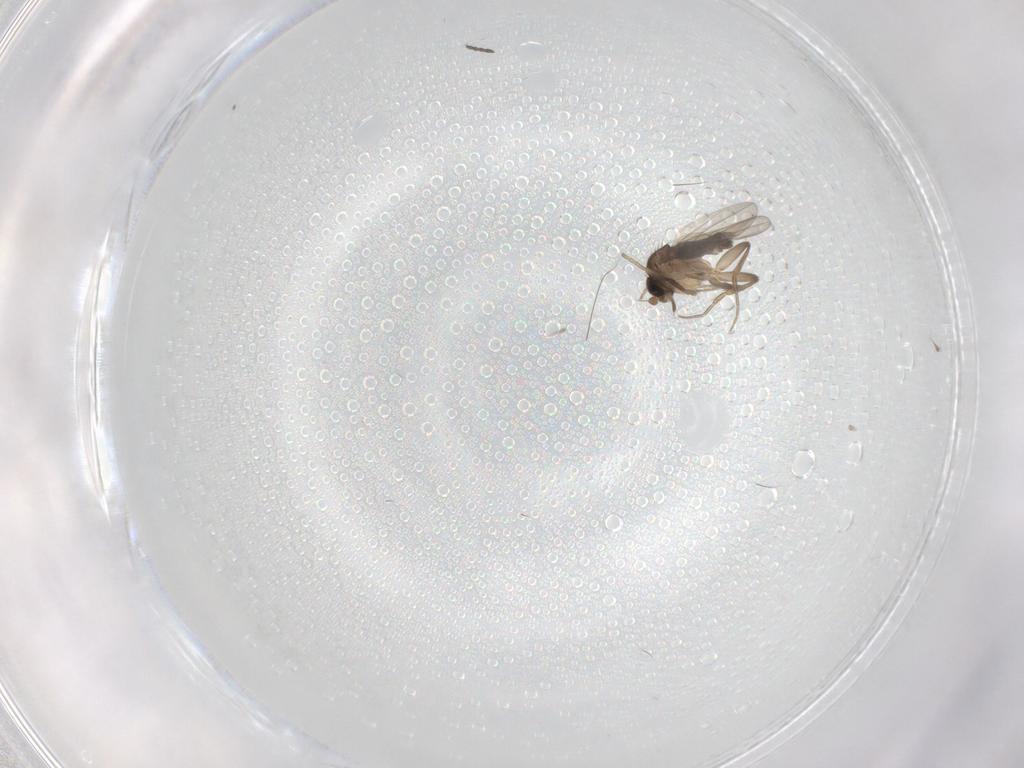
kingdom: Animalia
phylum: Arthropoda
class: Insecta
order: Diptera
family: Phoridae
